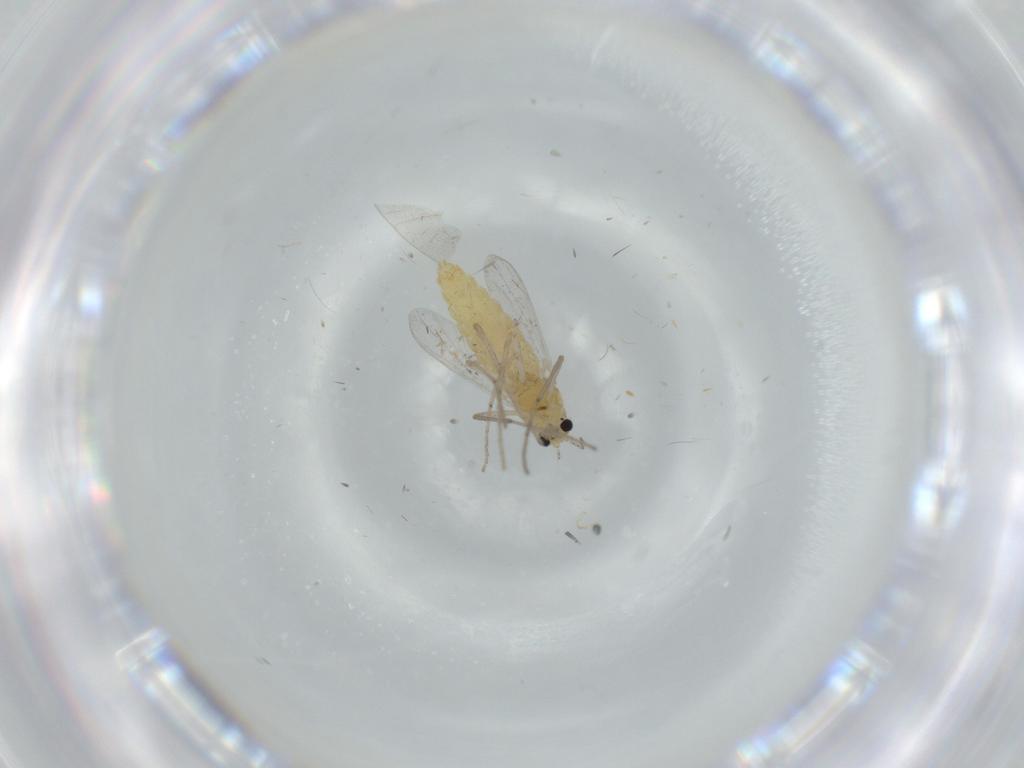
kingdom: Animalia
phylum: Arthropoda
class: Insecta
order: Diptera
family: Chironomidae
